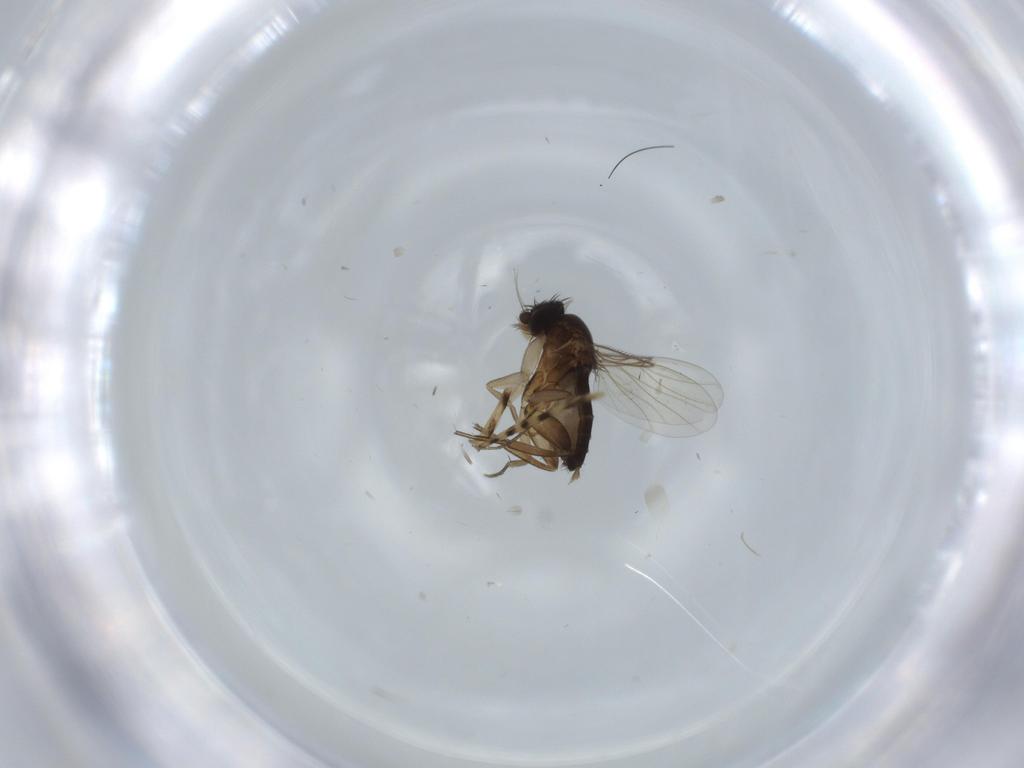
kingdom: Animalia
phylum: Arthropoda
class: Insecta
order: Diptera
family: Phoridae
